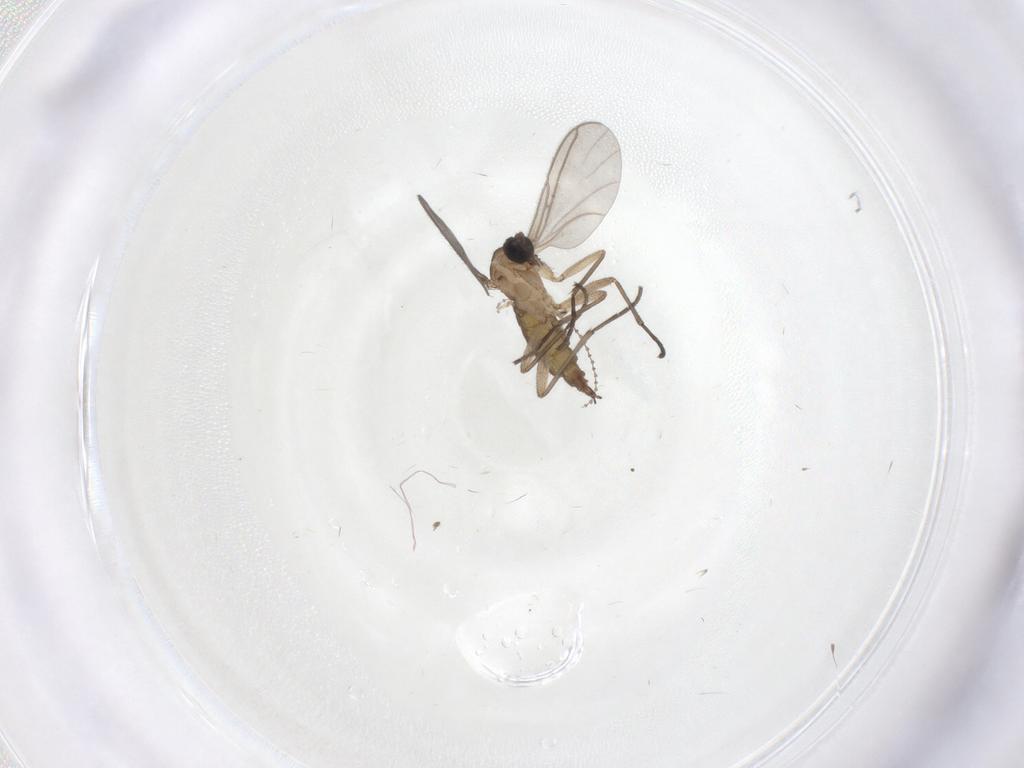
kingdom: Animalia
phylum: Arthropoda
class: Insecta
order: Diptera
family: Sciaridae
